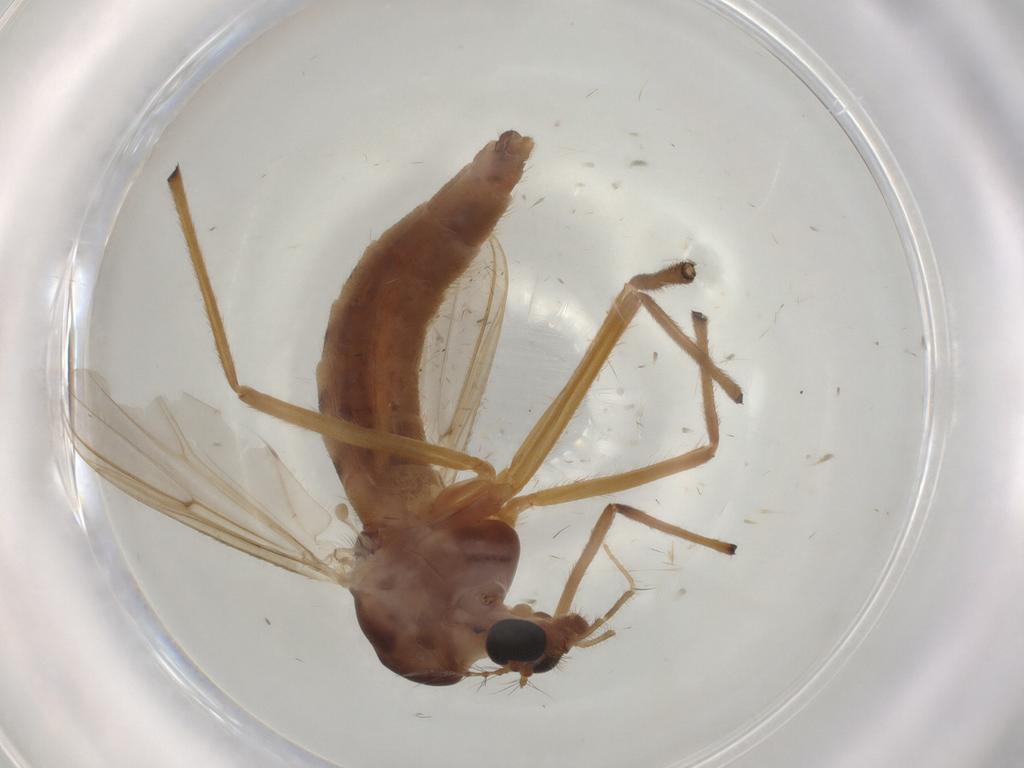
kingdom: Animalia
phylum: Arthropoda
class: Insecta
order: Diptera
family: Chironomidae
